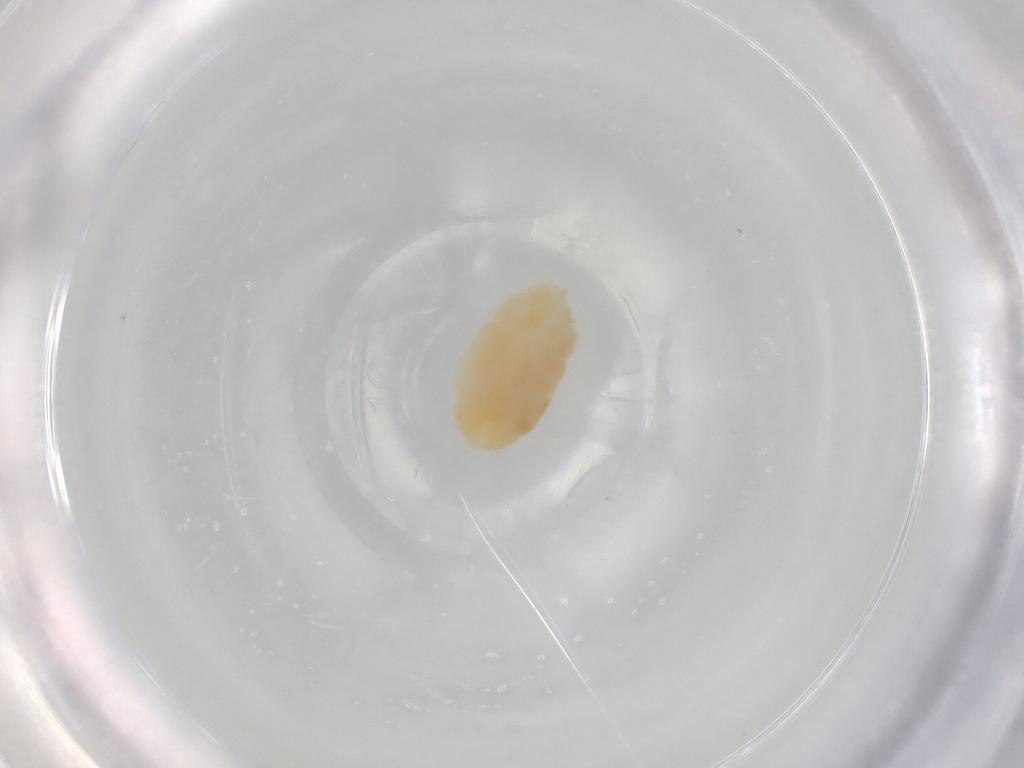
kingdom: Animalia
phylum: Arthropoda
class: Arachnida
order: Trombidiformes
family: Trombidiidae
